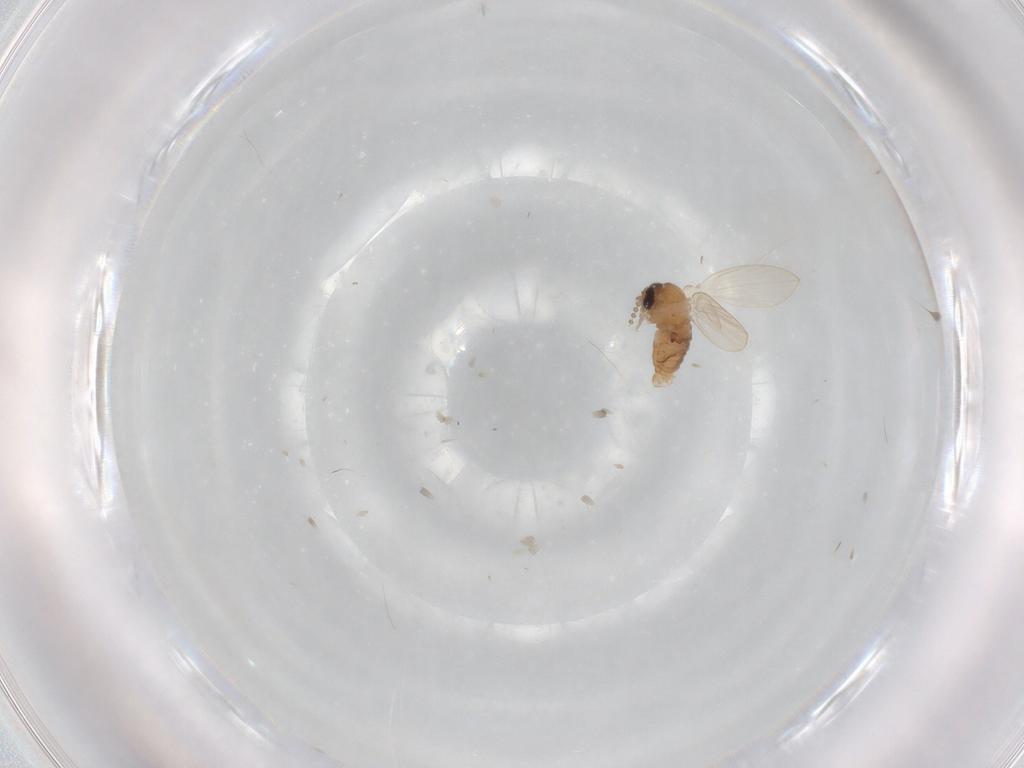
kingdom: Animalia
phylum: Arthropoda
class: Insecta
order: Diptera
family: Psychodidae
